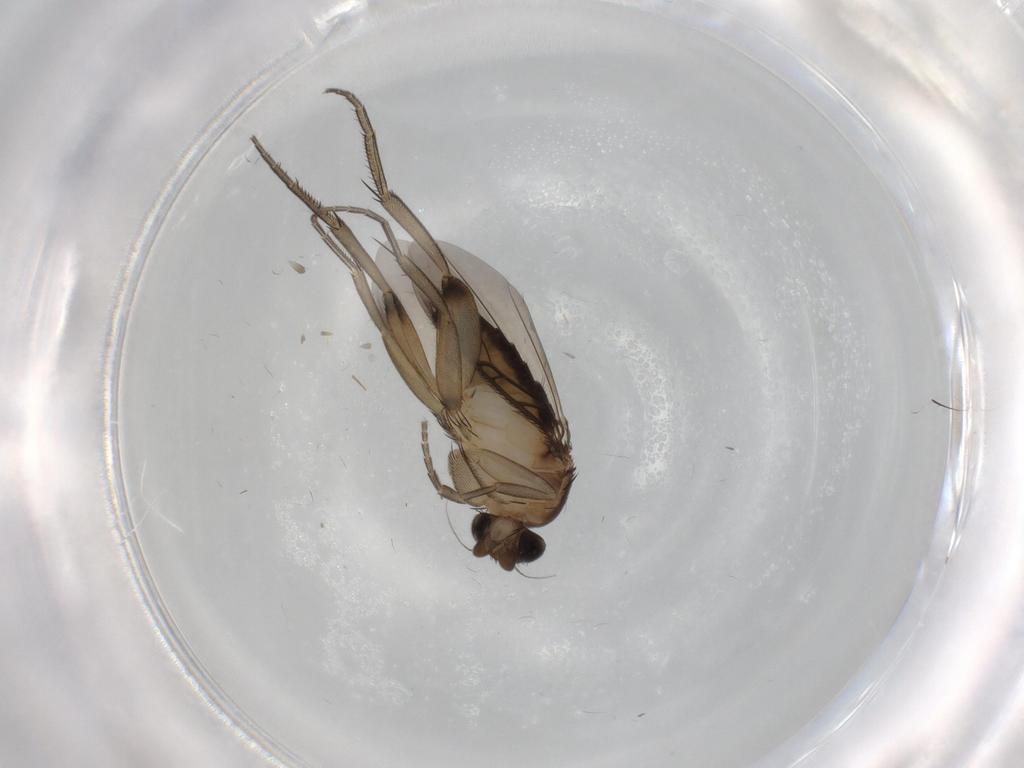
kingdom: Animalia
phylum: Arthropoda
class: Insecta
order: Diptera
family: Phoridae
